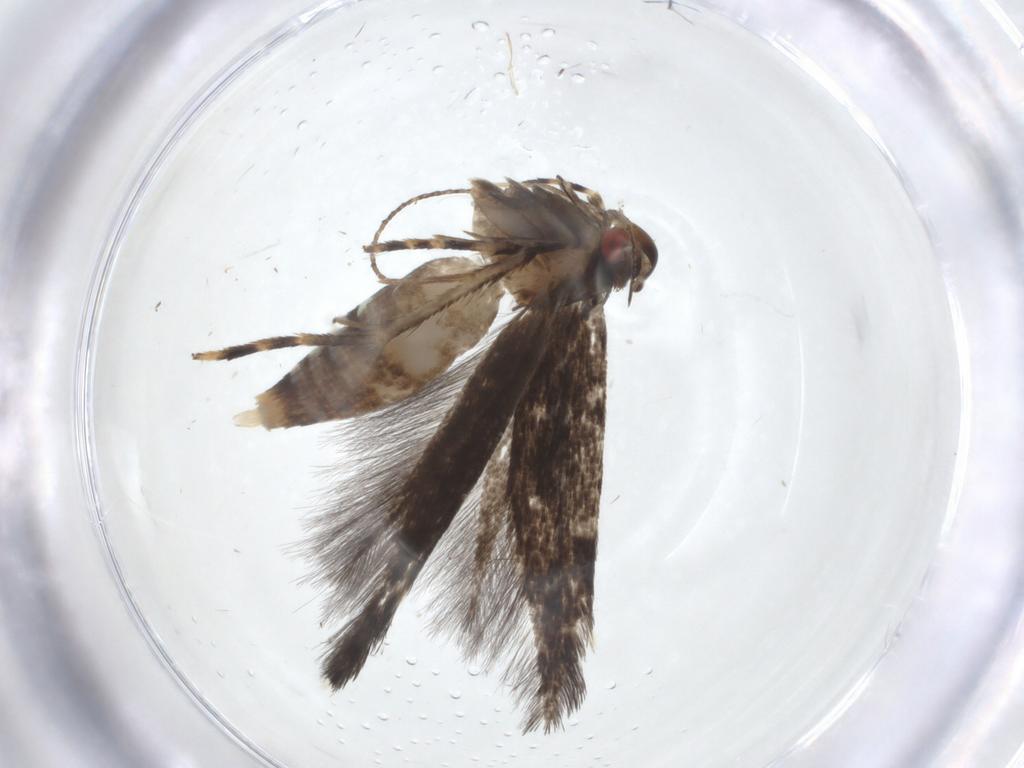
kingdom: Animalia
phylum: Arthropoda
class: Insecta
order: Lepidoptera
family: Cosmopterigidae
